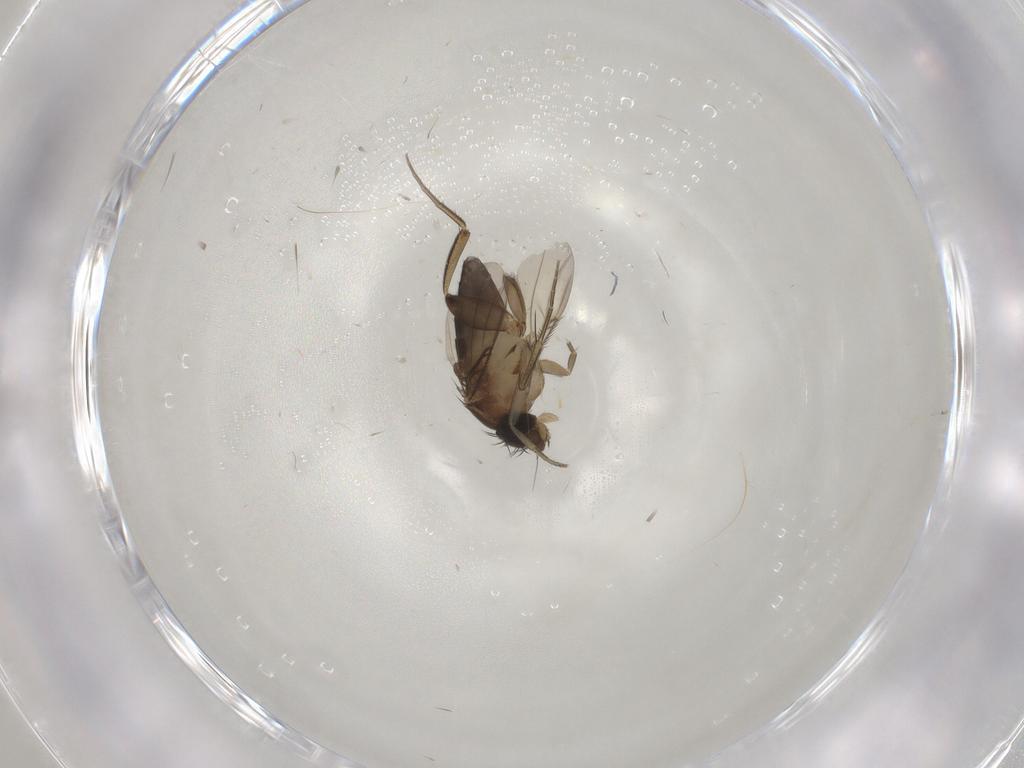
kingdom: Animalia
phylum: Arthropoda
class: Insecta
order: Diptera
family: Phoridae
